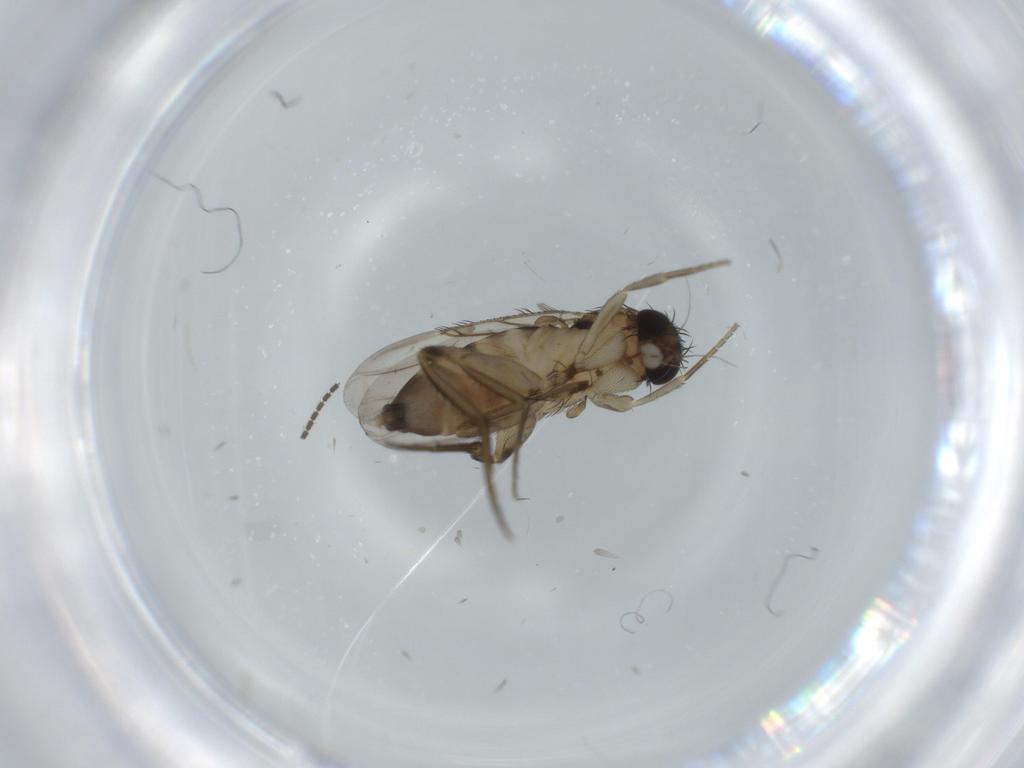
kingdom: Animalia
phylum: Arthropoda
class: Insecta
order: Diptera
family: Phoridae
